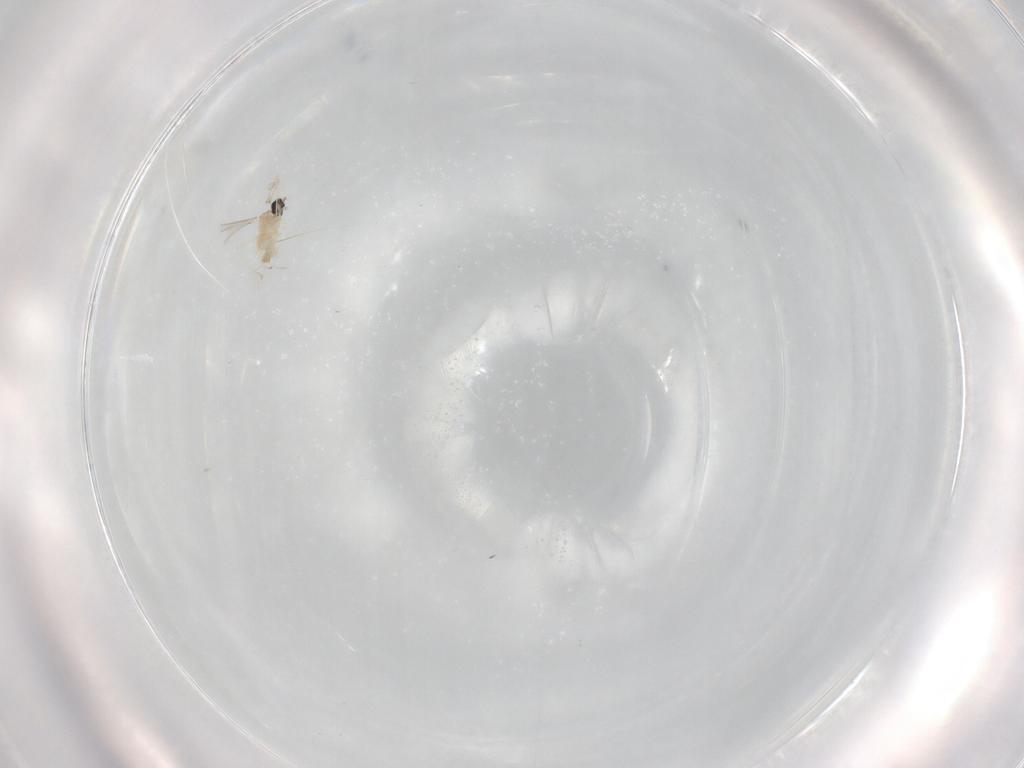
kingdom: Animalia
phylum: Arthropoda
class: Insecta
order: Diptera
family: Cecidomyiidae
